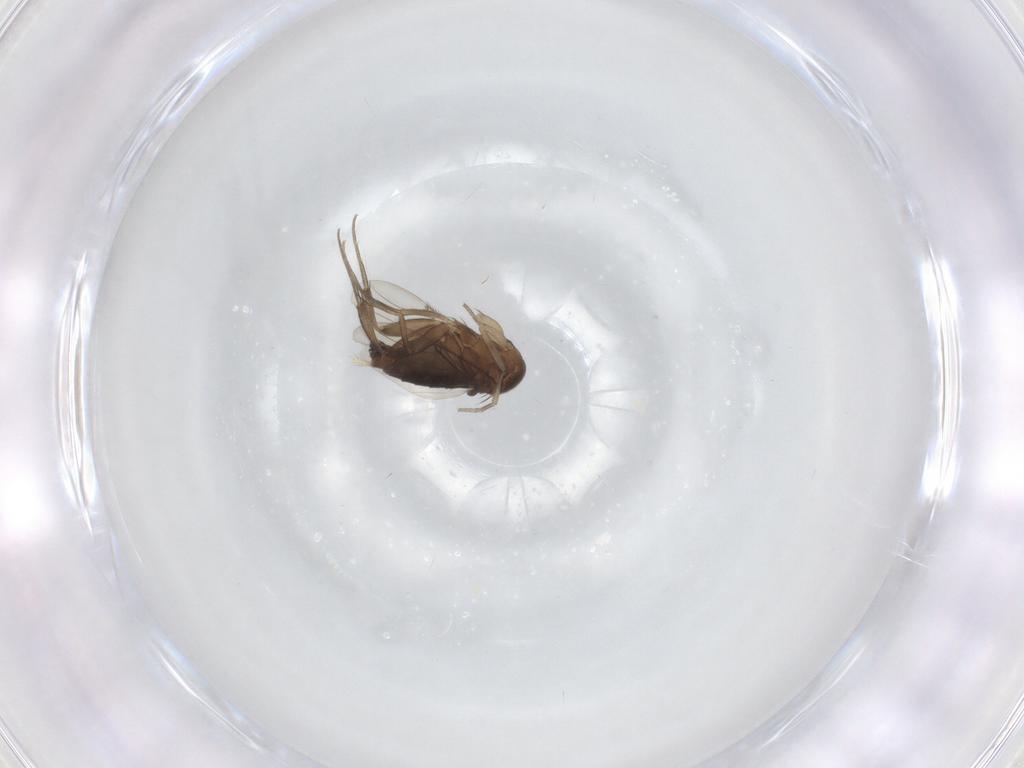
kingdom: Animalia
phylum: Arthropoda
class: Insecta
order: Diptera
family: Phoridae
